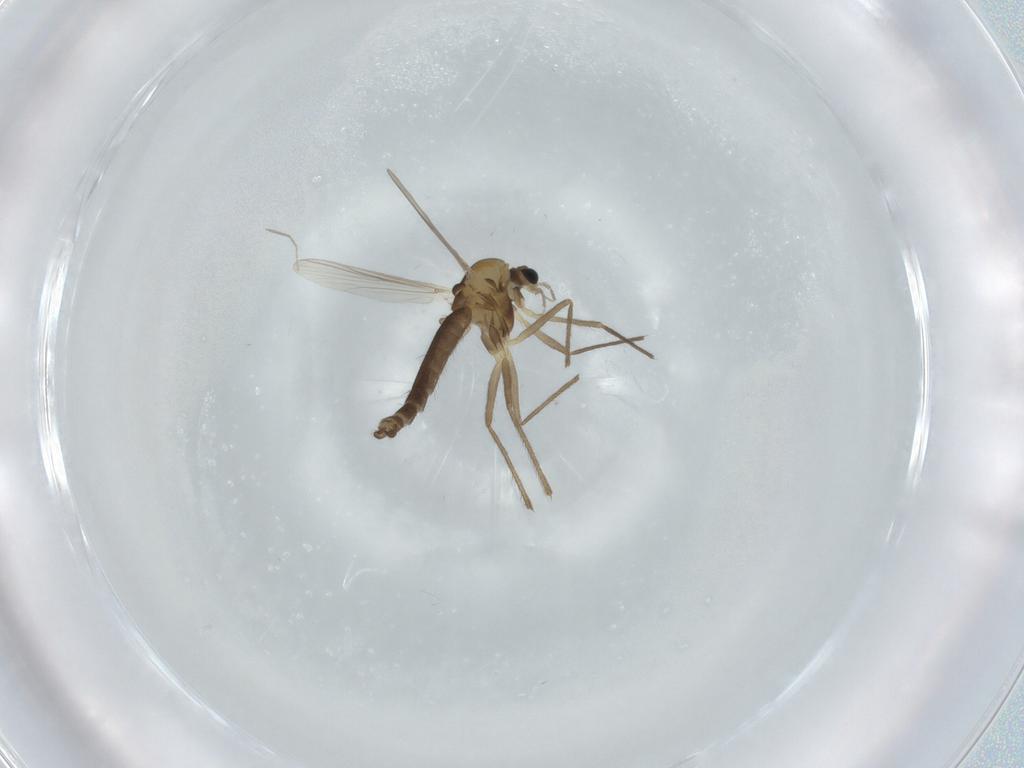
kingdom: Animalia
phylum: Arthropoda
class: Insecta
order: Diptera
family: Chironomidae
